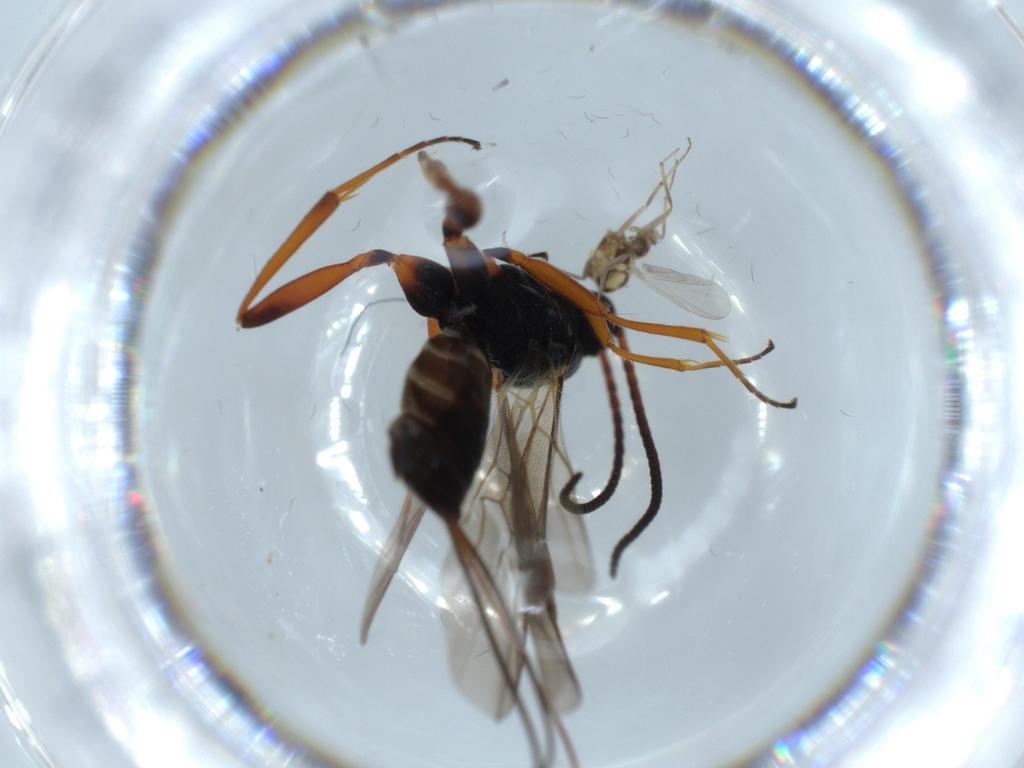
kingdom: Animalia
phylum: Arthropoda
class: Insecta
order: Hymenoptera
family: Braconidae
